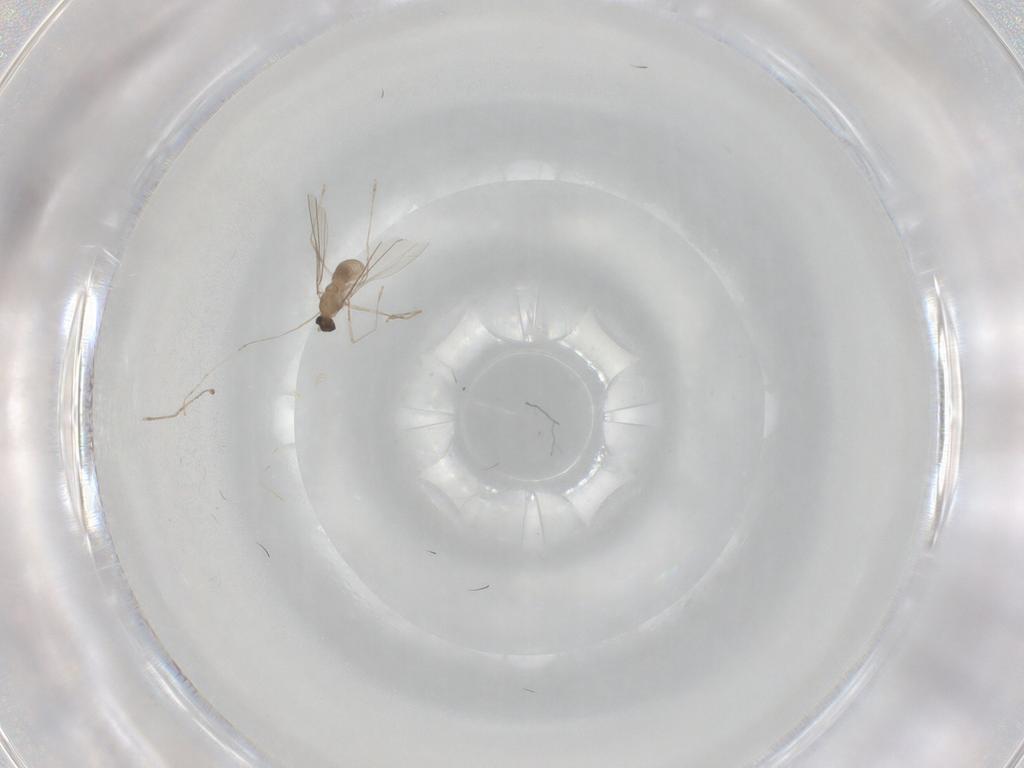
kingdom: Animalia
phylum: Arthropoda
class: Insecta
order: Diptera
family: Cecidomyiidae
